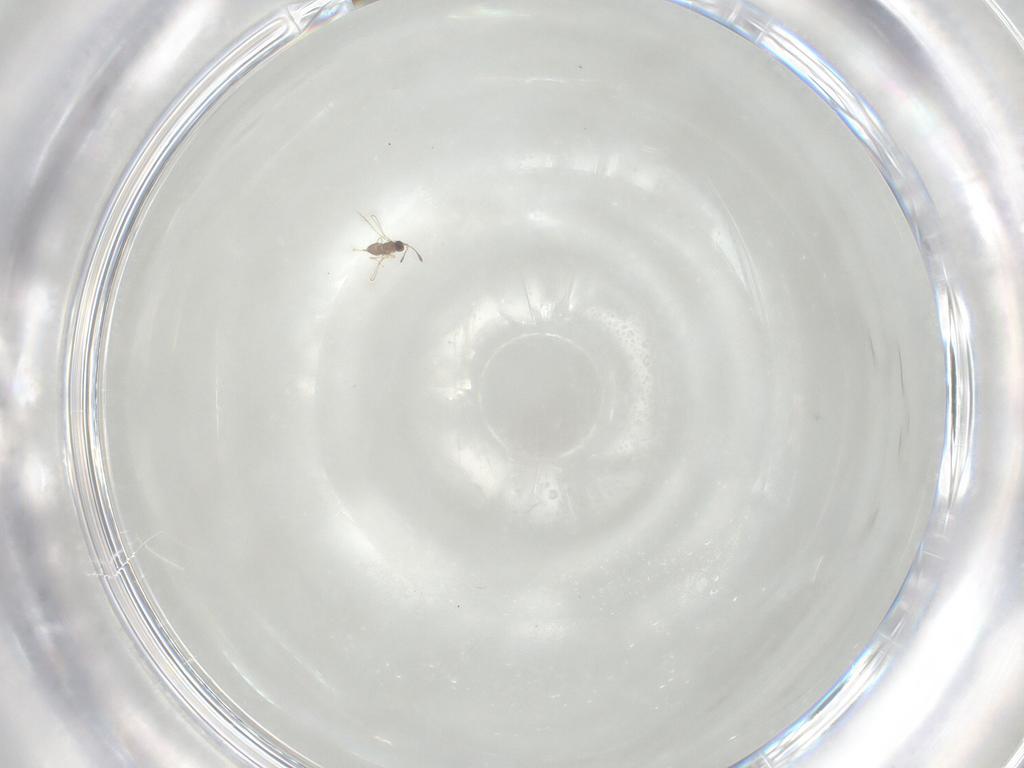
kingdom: Animalia
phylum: Arthropoda
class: Insecta
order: Hymenoptera
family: Mymaridae
